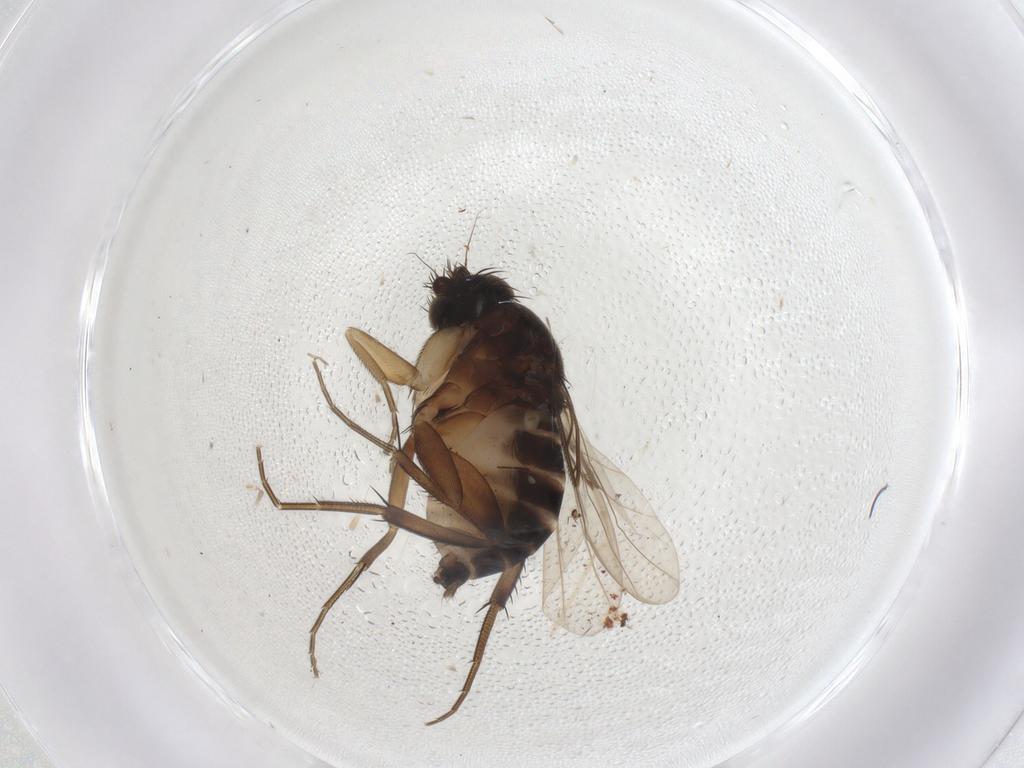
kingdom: Animalia
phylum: Arthropoda
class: Insecta
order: Diptera
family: Phoridae
